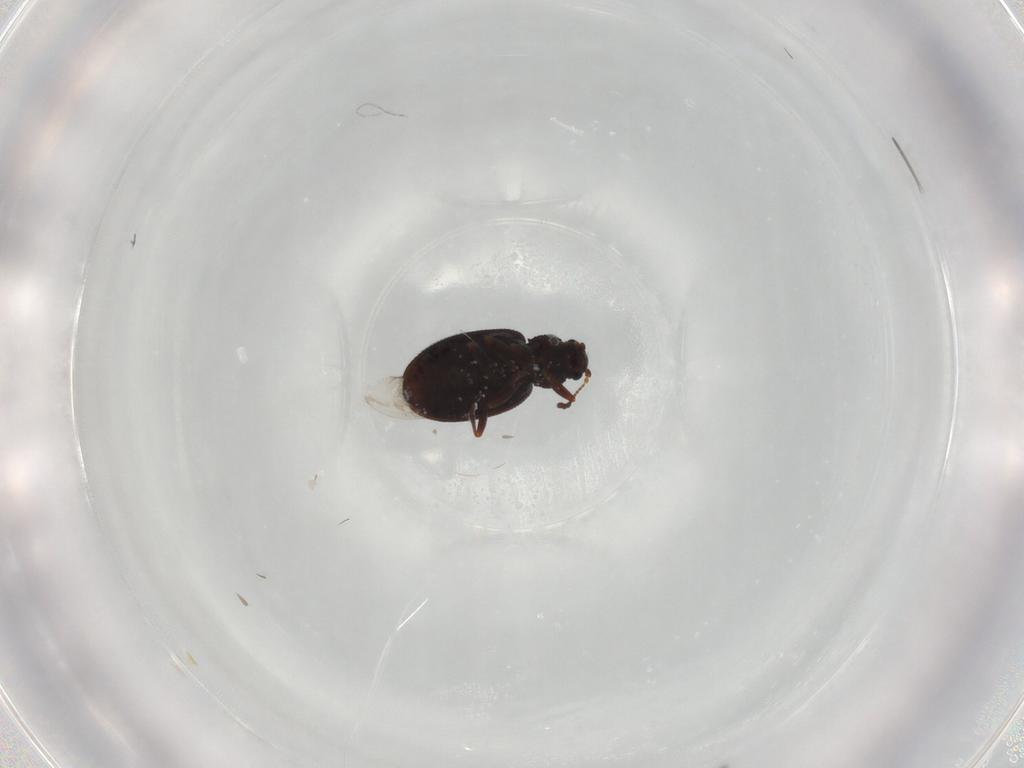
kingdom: Animalia
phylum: Arthropoda
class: Insecta
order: Coleoptera
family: Latridiidae
